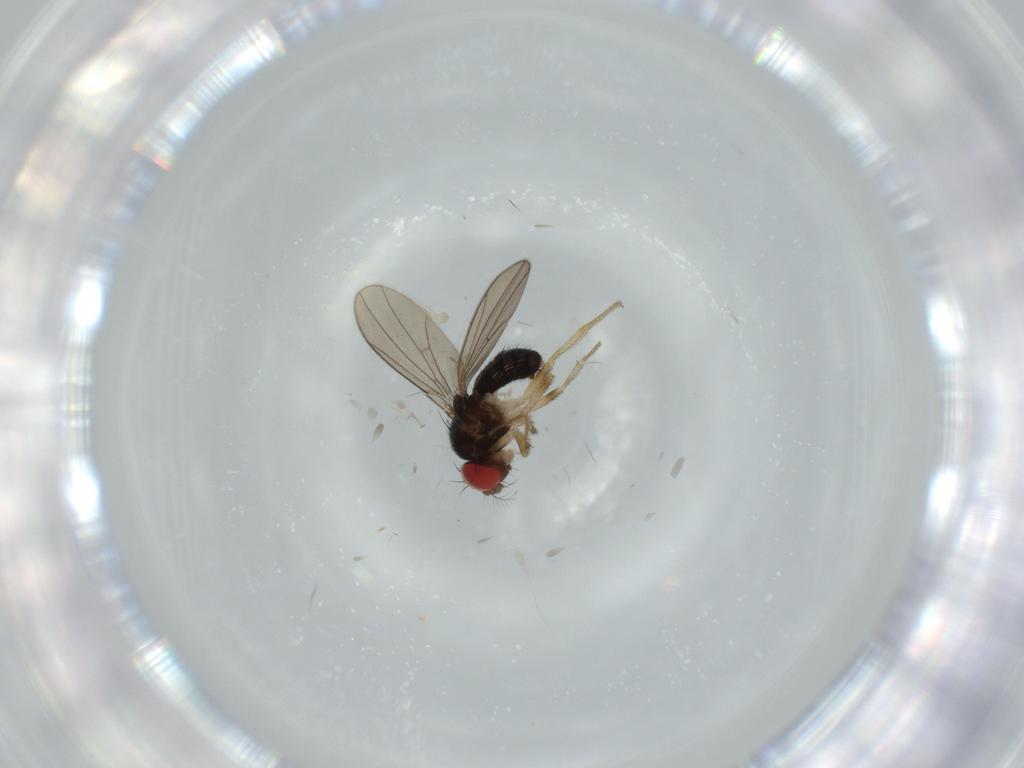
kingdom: Animalia
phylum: Arthropoda
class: Insecta
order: Diptera
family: Drosophilidae
